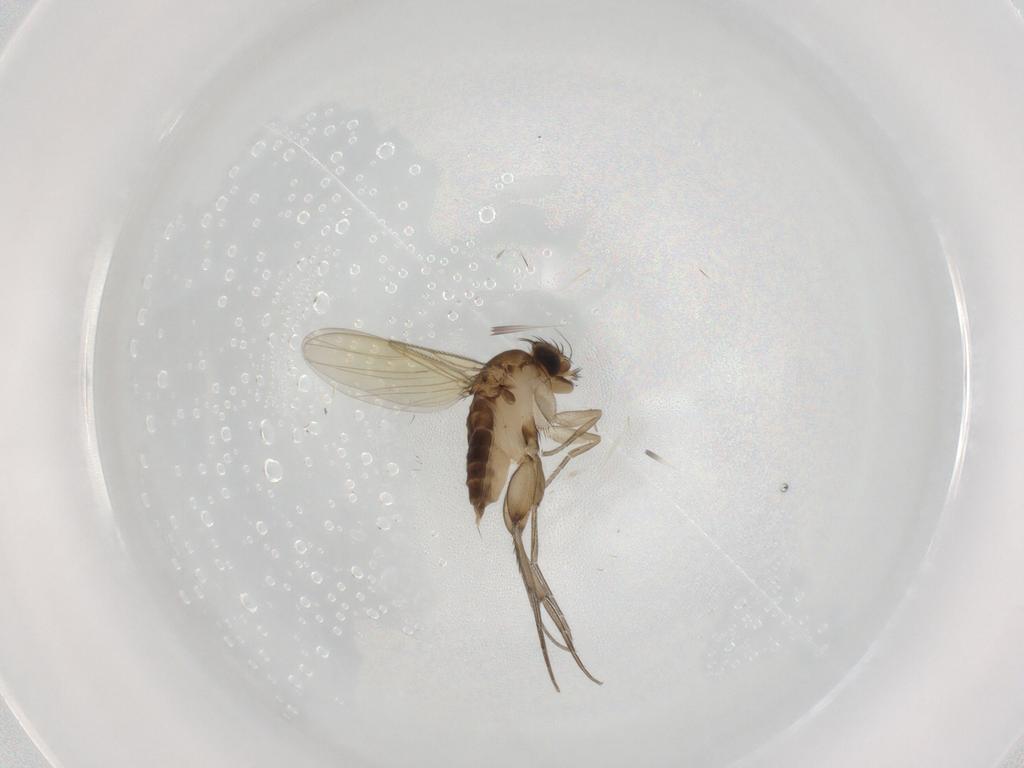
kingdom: Animalia
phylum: Arthropoda
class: Insecta
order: Diptera
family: Phoridae
